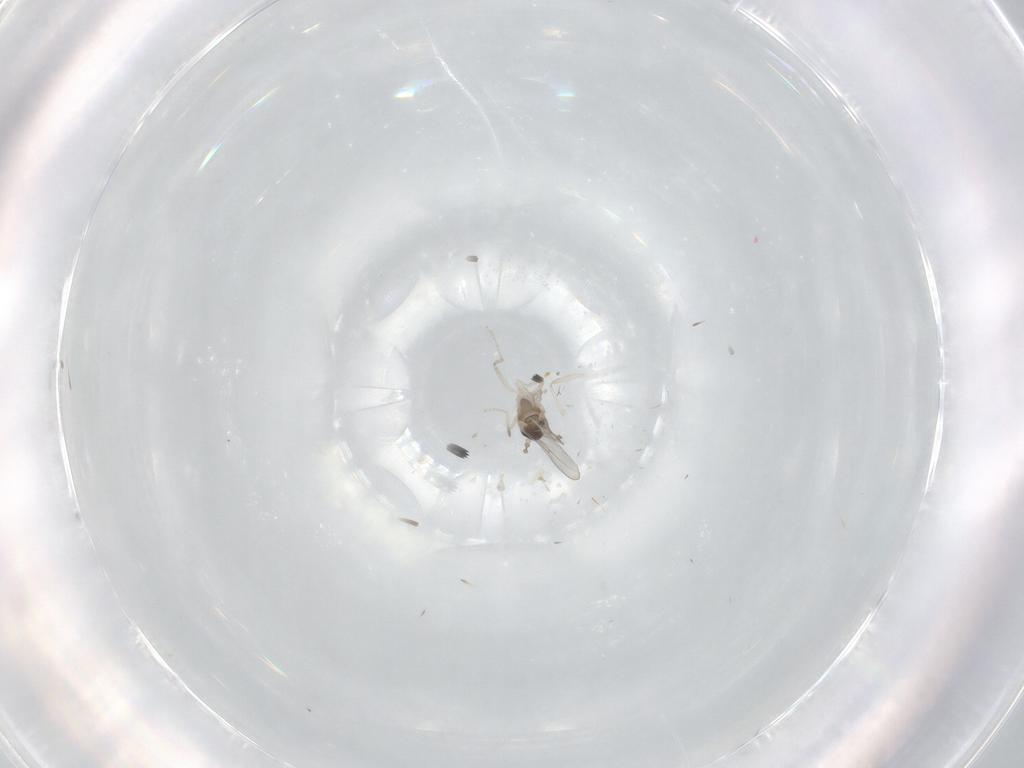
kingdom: Animalia
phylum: Arthropoda
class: Insecta
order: Diptera
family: Cecidomyiidae
